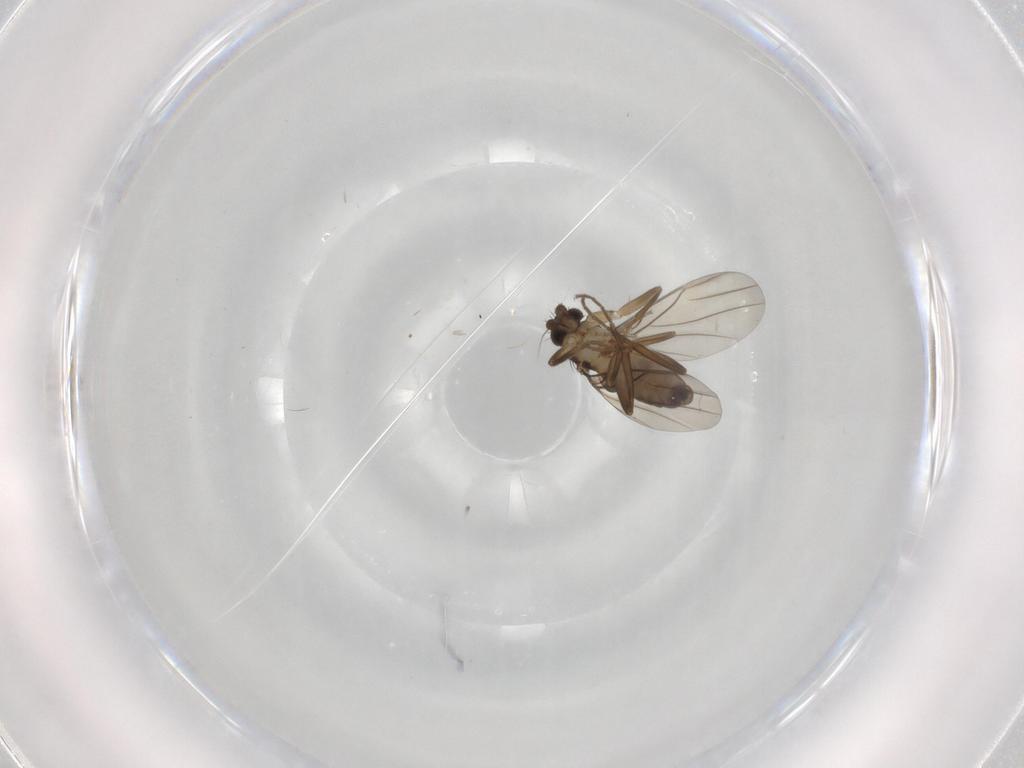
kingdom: Animalia
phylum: Arthropoda
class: Insecta
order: Diptera
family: Phoridae
